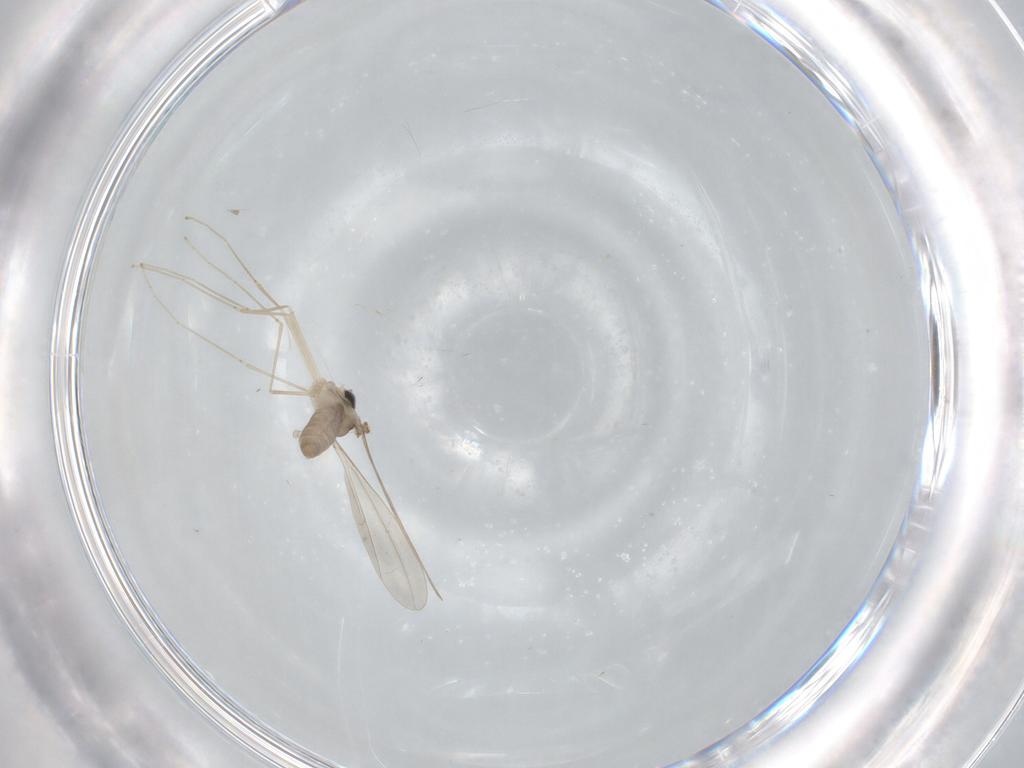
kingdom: Animalia
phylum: Arthropoda
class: Insecta
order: Diptera
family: Cecidomyiidae
